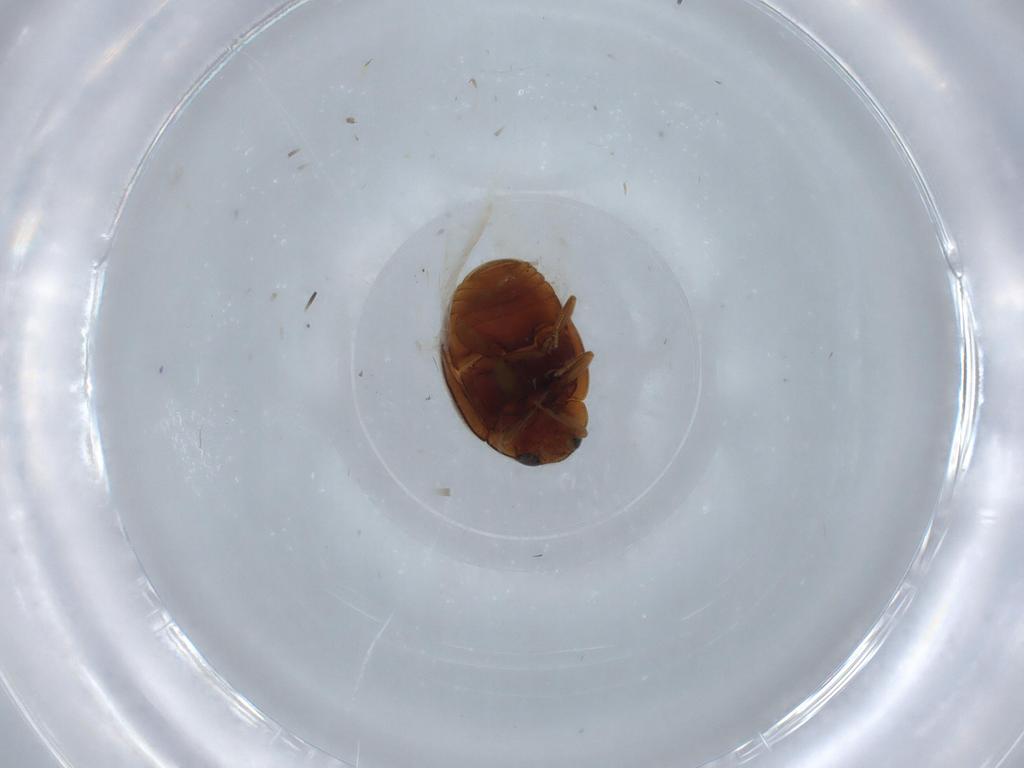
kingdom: Animalia
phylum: Arthropoda
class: Insecta
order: Coleoptera
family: Coccinellidae
